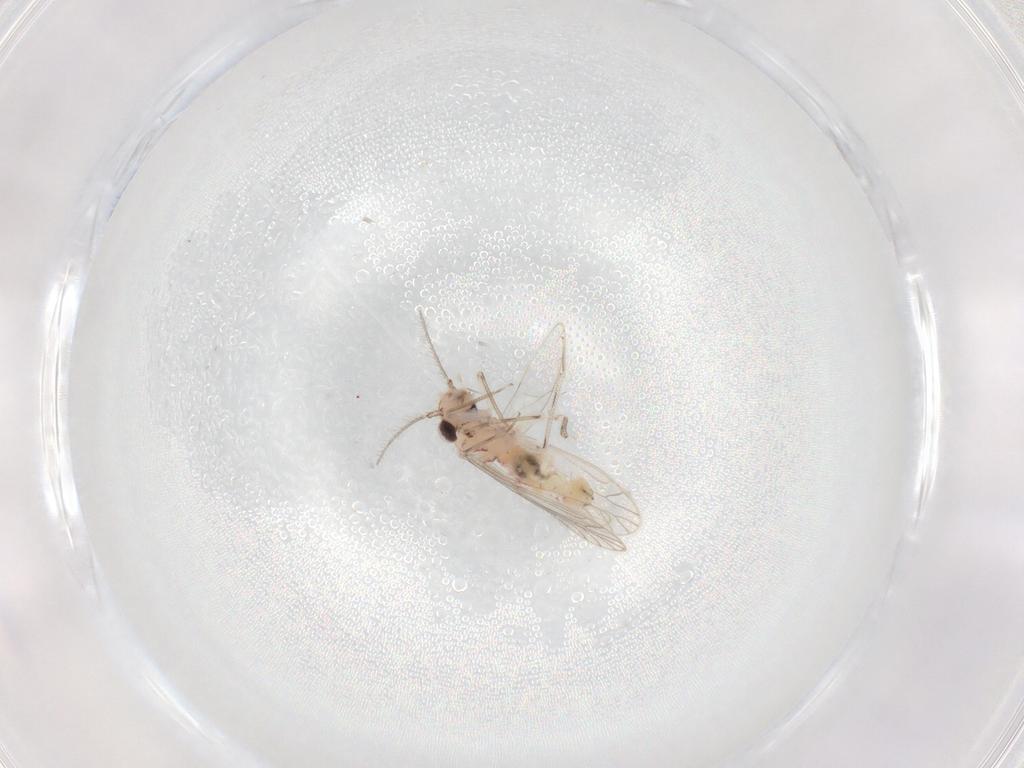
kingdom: Animalia
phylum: Arthropoda
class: Insecta
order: Psocodea
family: Caeciliusidae
